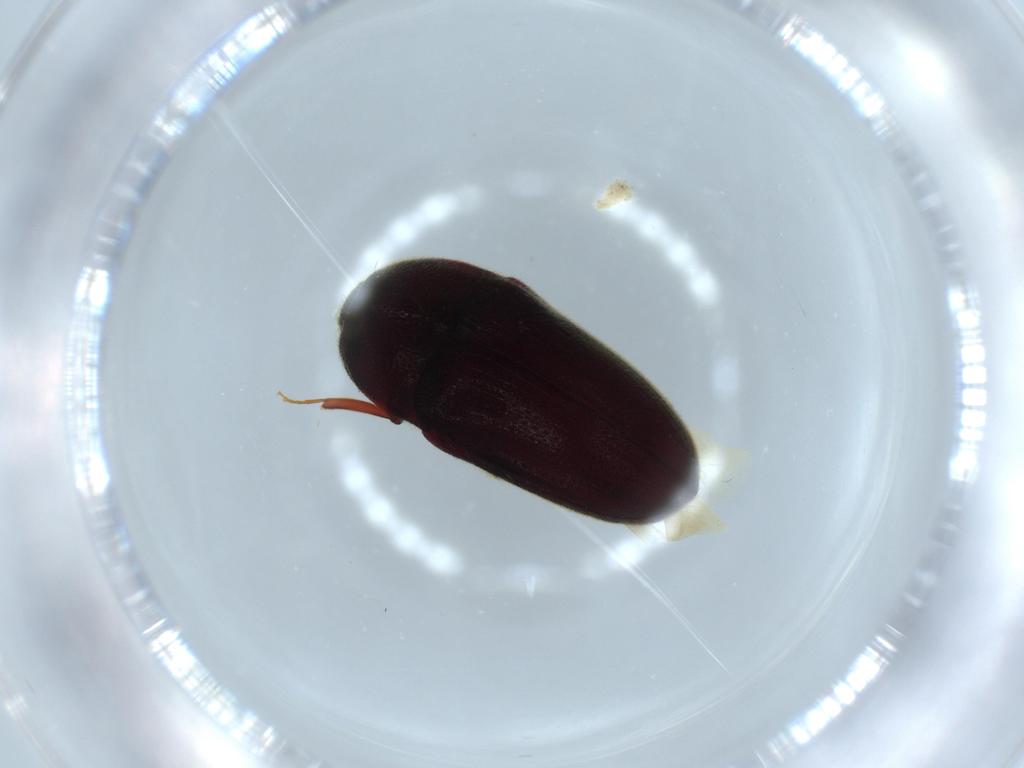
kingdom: Animalia
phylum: Arthropoda
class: Insecta
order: Coleoptera
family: Throscidae
